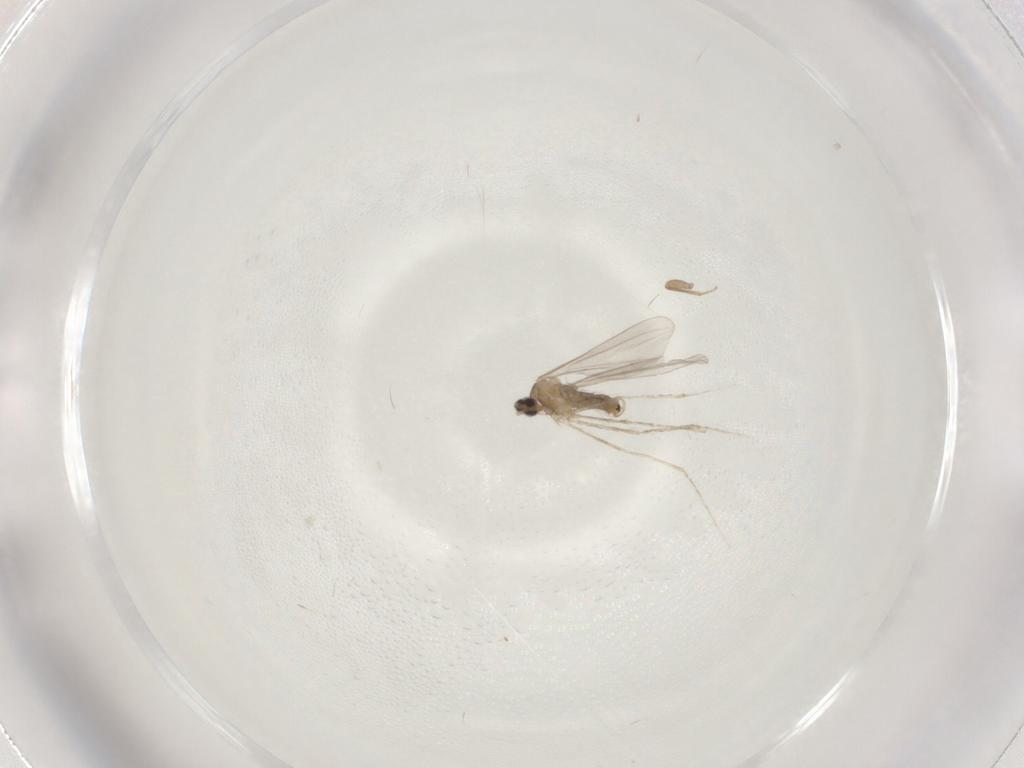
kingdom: Animalia
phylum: Arthropoda
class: Insecta
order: Diptera
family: Cecidomyiidae
